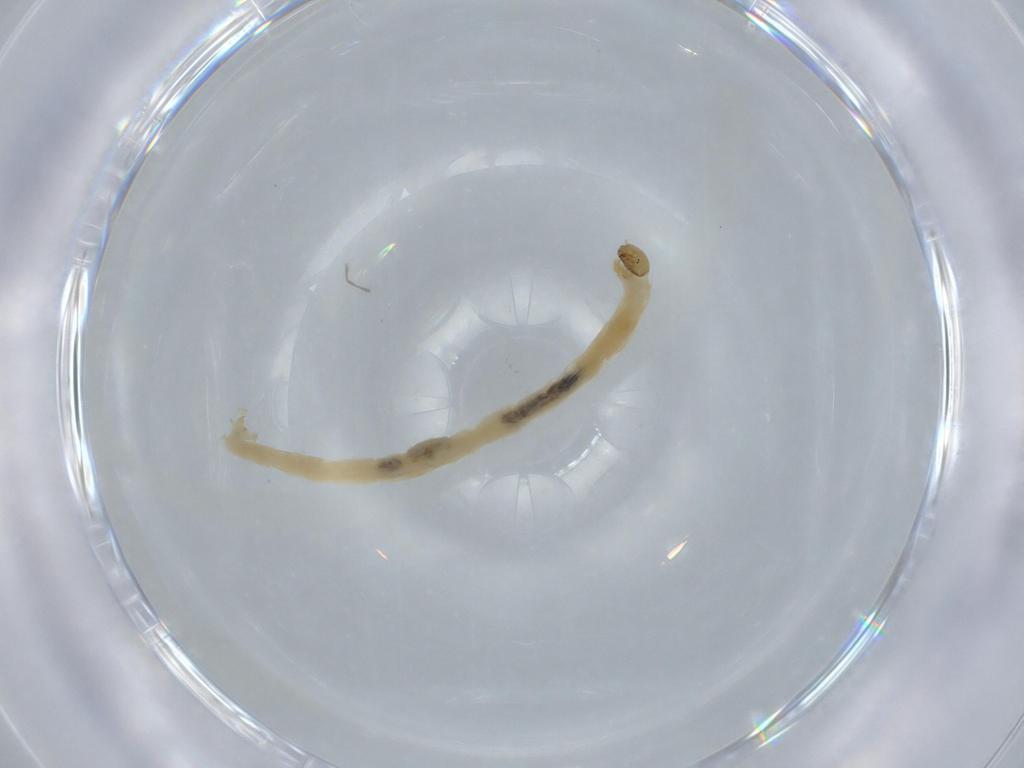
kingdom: Animalia
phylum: Arthropoda
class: Insecta
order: Diptera
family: Chironomidae
